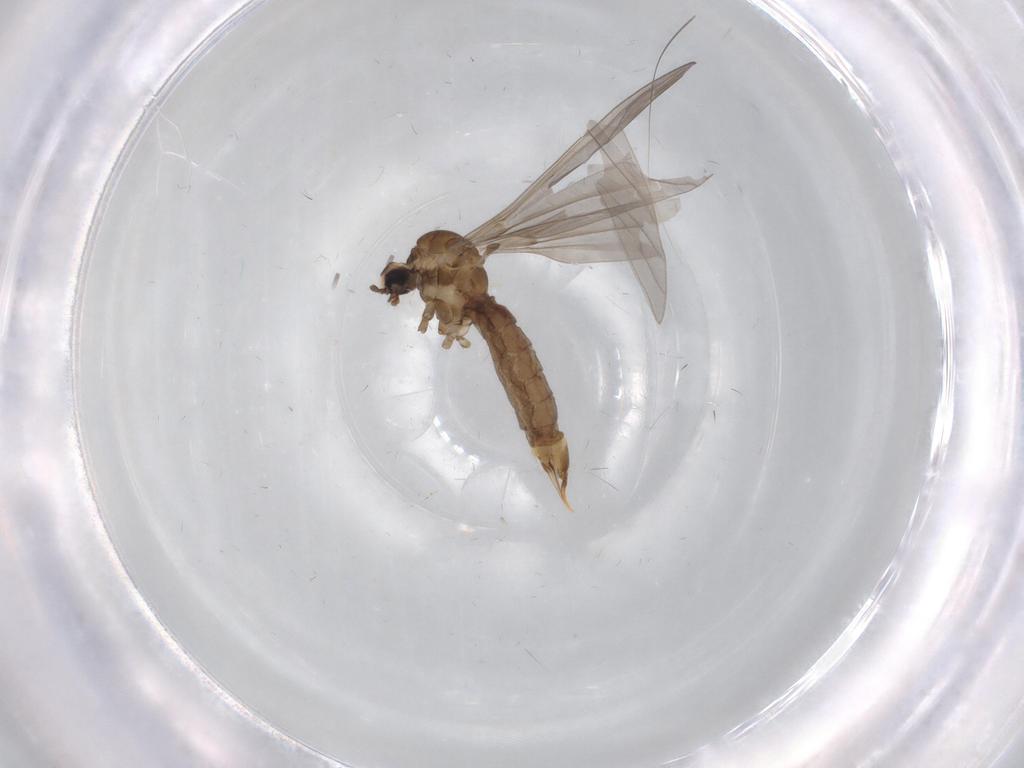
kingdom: Animalia
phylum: Arthropoda
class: Insecta
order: Diptera
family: Limoniidae
